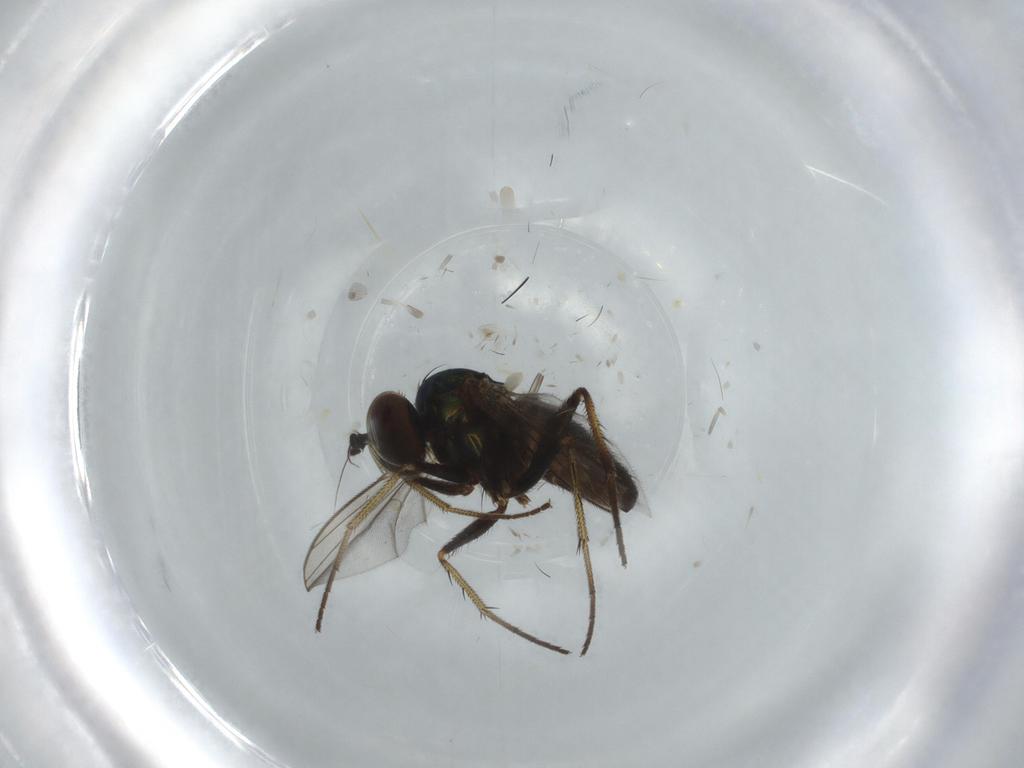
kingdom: Animalia
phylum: Arthropoda
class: Insecta
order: Diptera
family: Dolichopodidae
